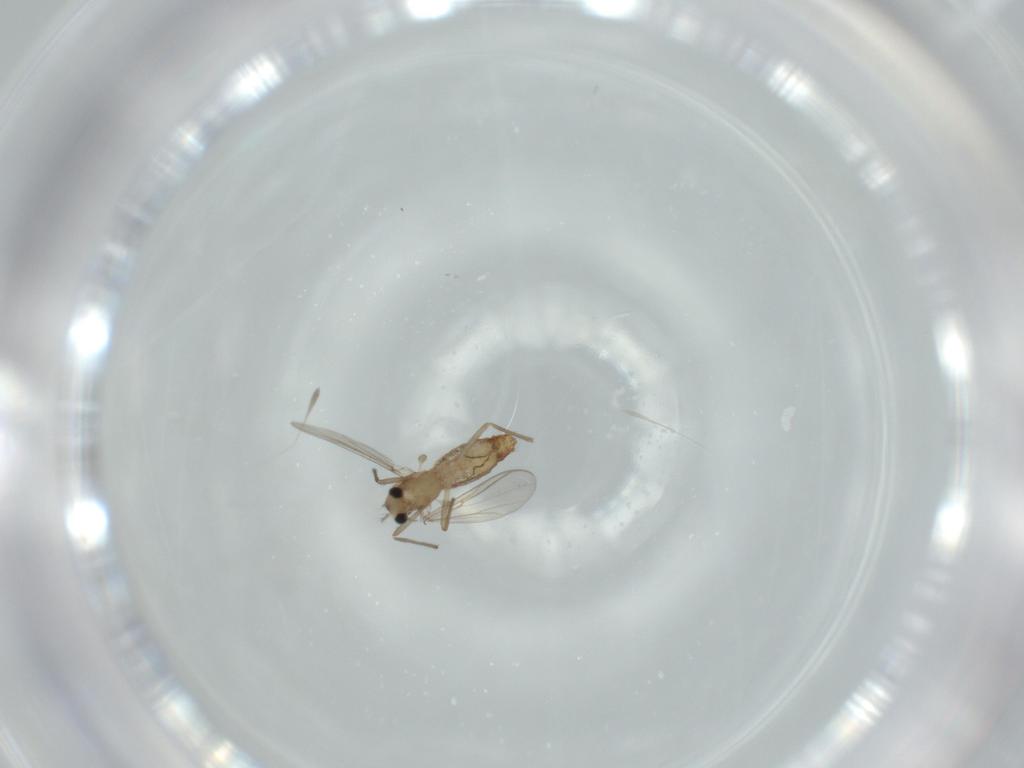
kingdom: Animalia
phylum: Arthropoda
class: Insecta
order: Diptera
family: Chironomidae
